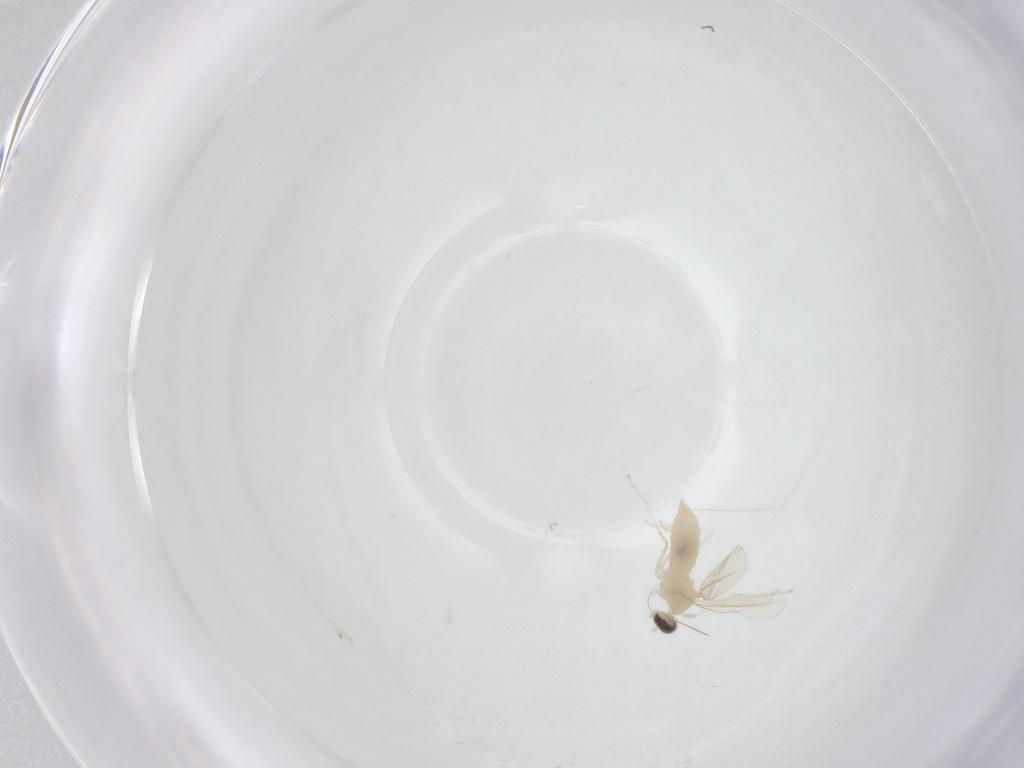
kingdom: Animalia
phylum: Arthropoda
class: Insecta
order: Diptera
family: Cecidomyiidae
